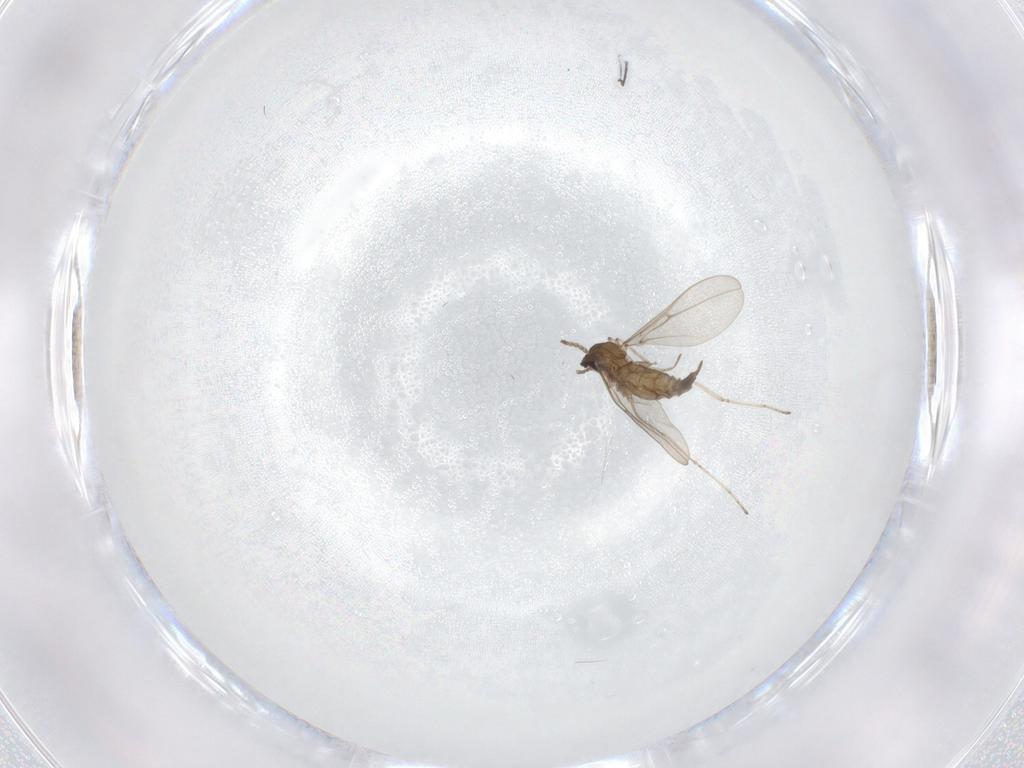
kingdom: Animalia
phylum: Arthropoda
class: Insecta
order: Diptera
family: Cecidomyiidae
